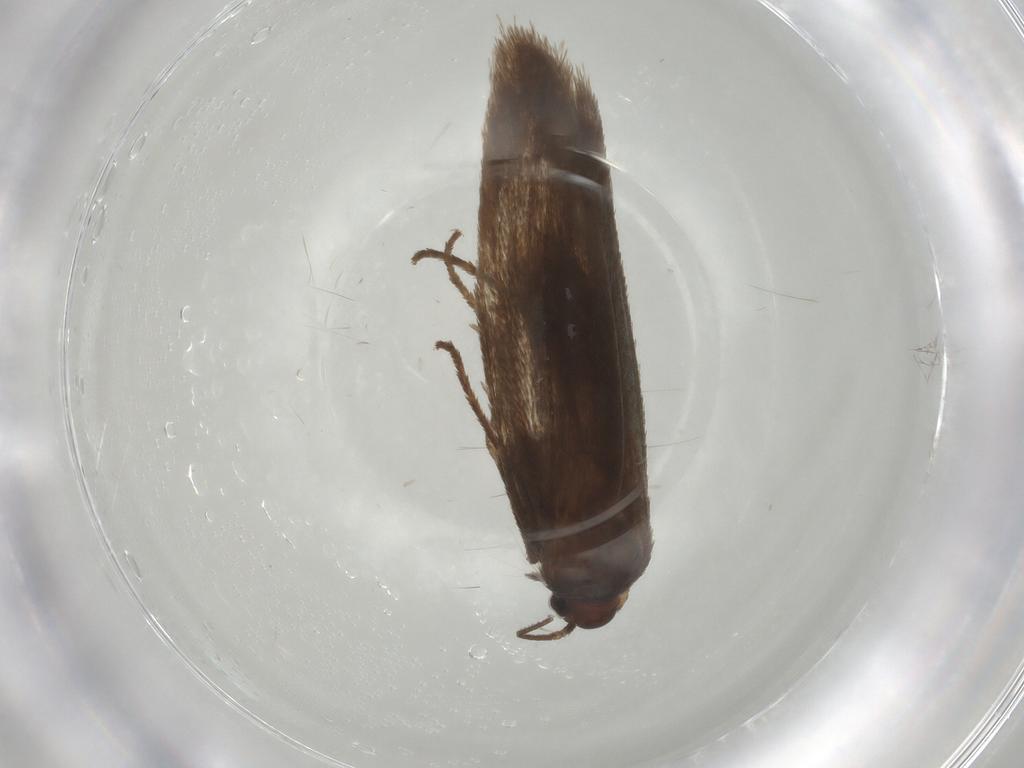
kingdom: Animalia
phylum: Arthropoda
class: Insecta
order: Lepidoptera
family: Limacodidae
